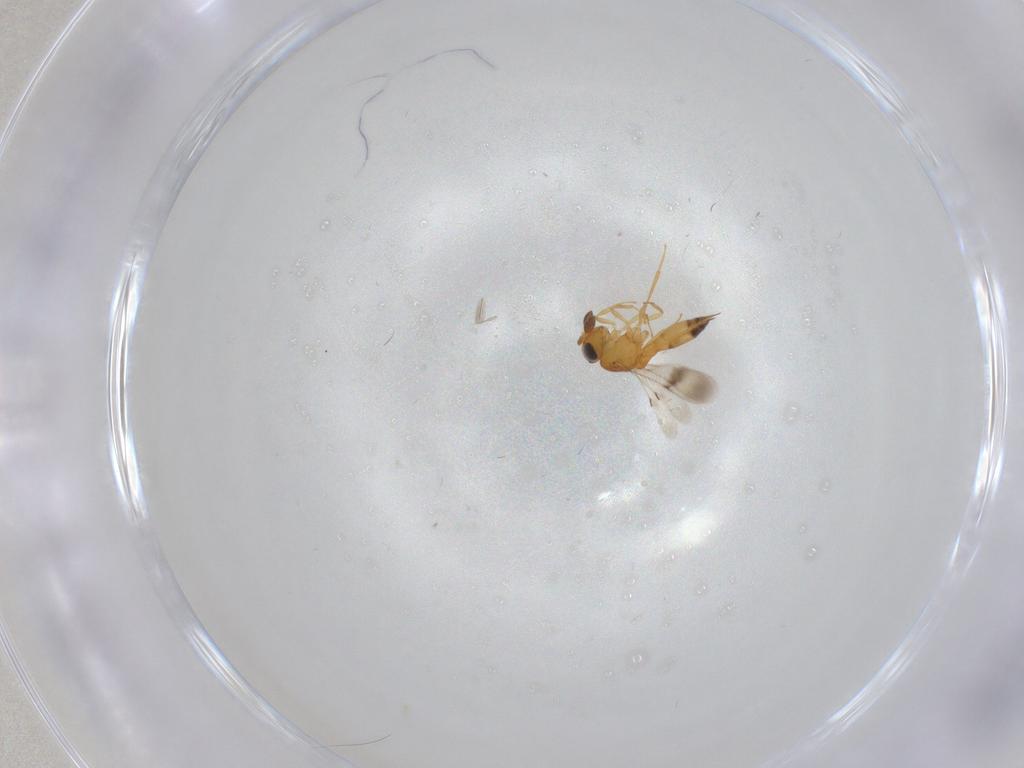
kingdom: Animalia
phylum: Arthropoda
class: Insecta
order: Hymenoptera
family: Scelionidae
